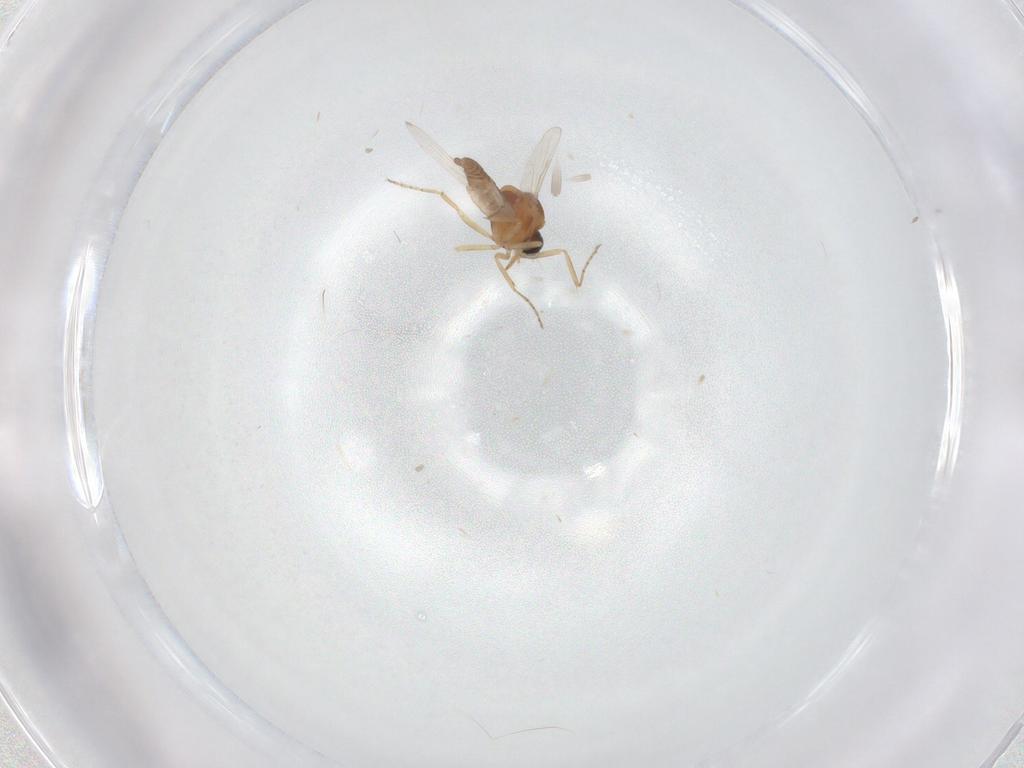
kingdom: Animalia
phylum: Arthropoda
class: Insecta
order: Diptera
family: Ceratopogonidae
